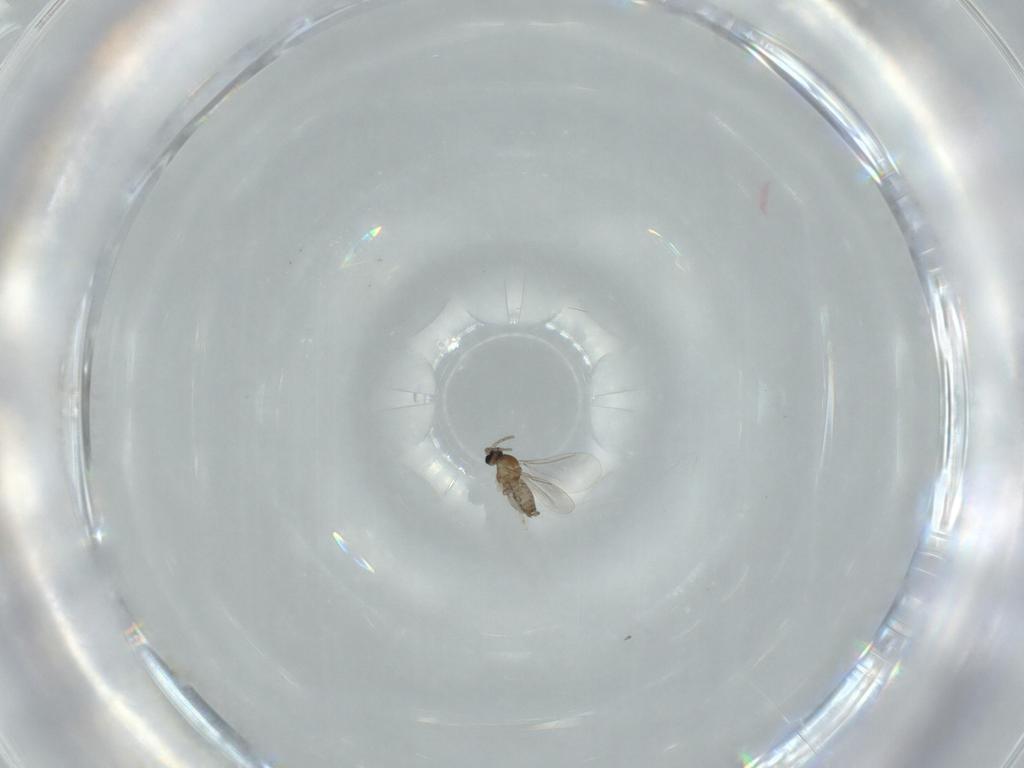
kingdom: Animalia
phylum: Arthropoda
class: Insecta
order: Diptera
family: Cecidomyiidae
